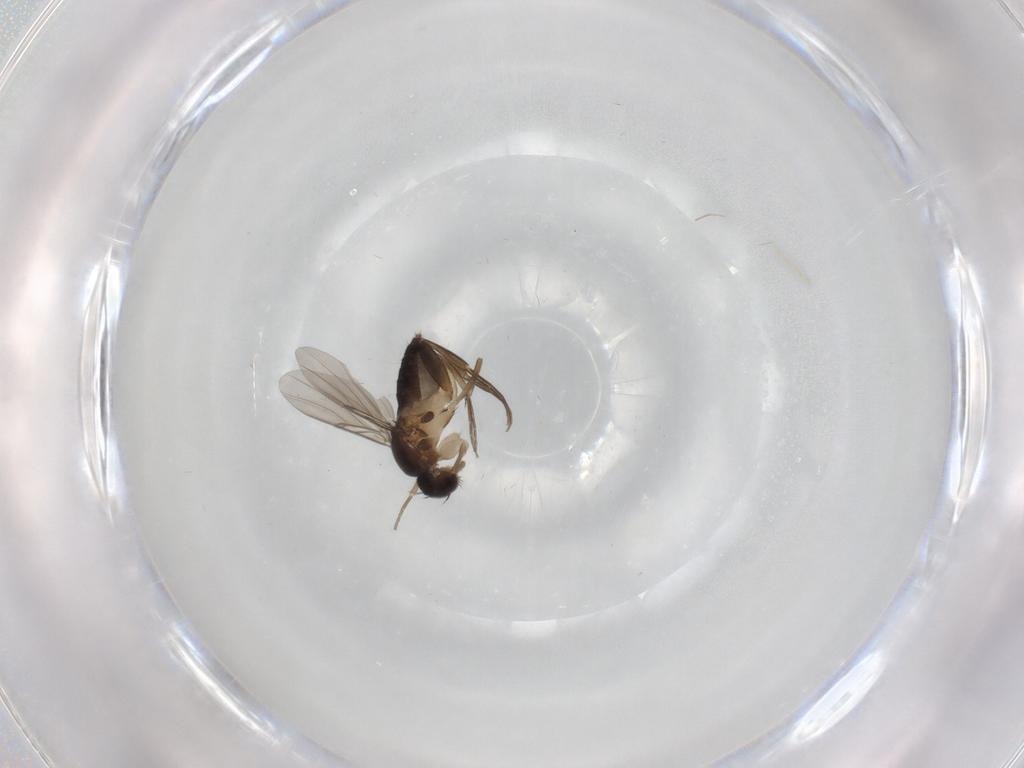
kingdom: Animalia
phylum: Arthropoda
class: Insecta
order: Diptera
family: Phoridae
